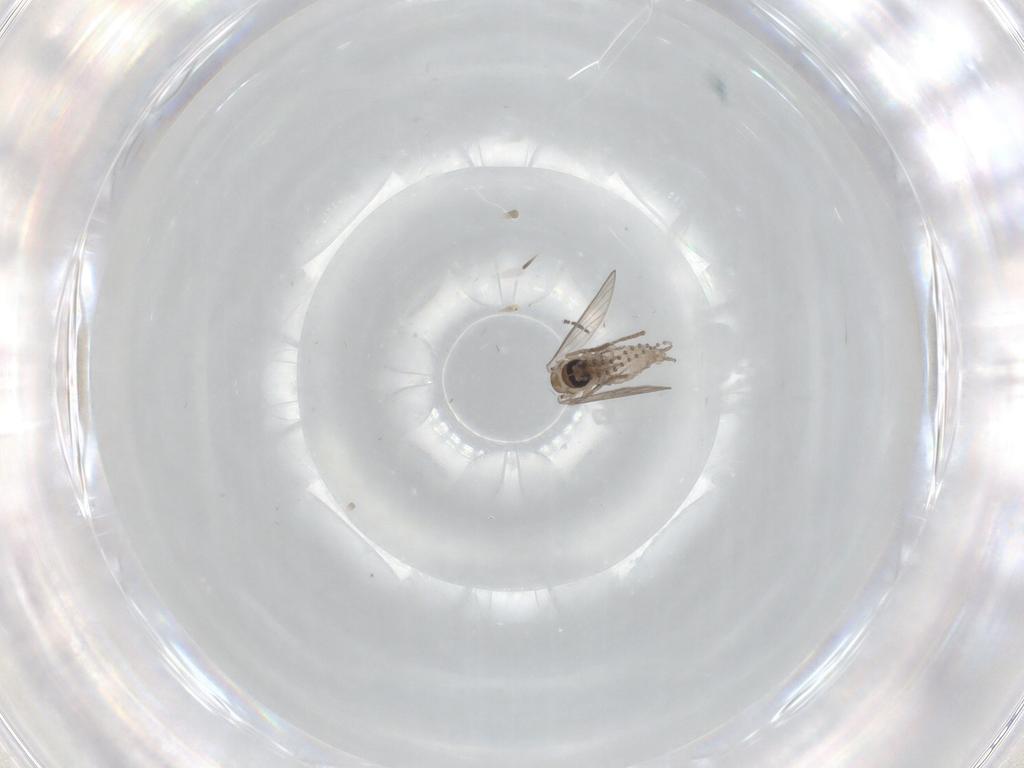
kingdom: Animalia
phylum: Arthropoda
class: Insecta
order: Diptera
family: Psychodidae
